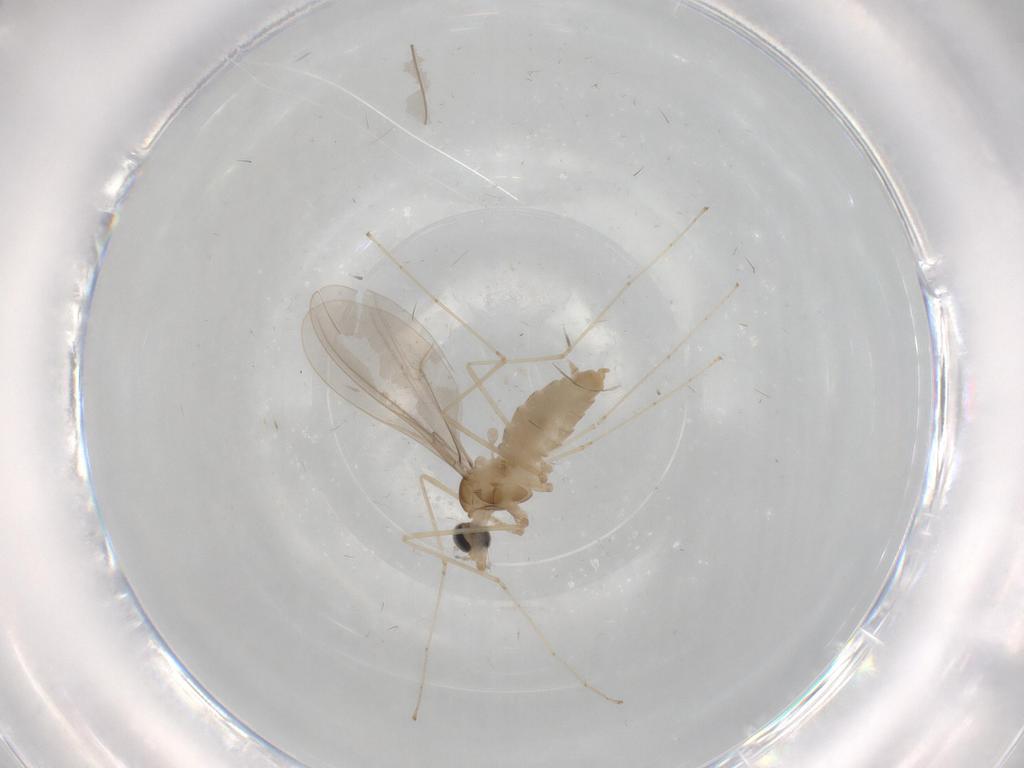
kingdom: Animalia
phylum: Arthropoda
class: Insecta
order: Diptera
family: Cecidomyiidae
